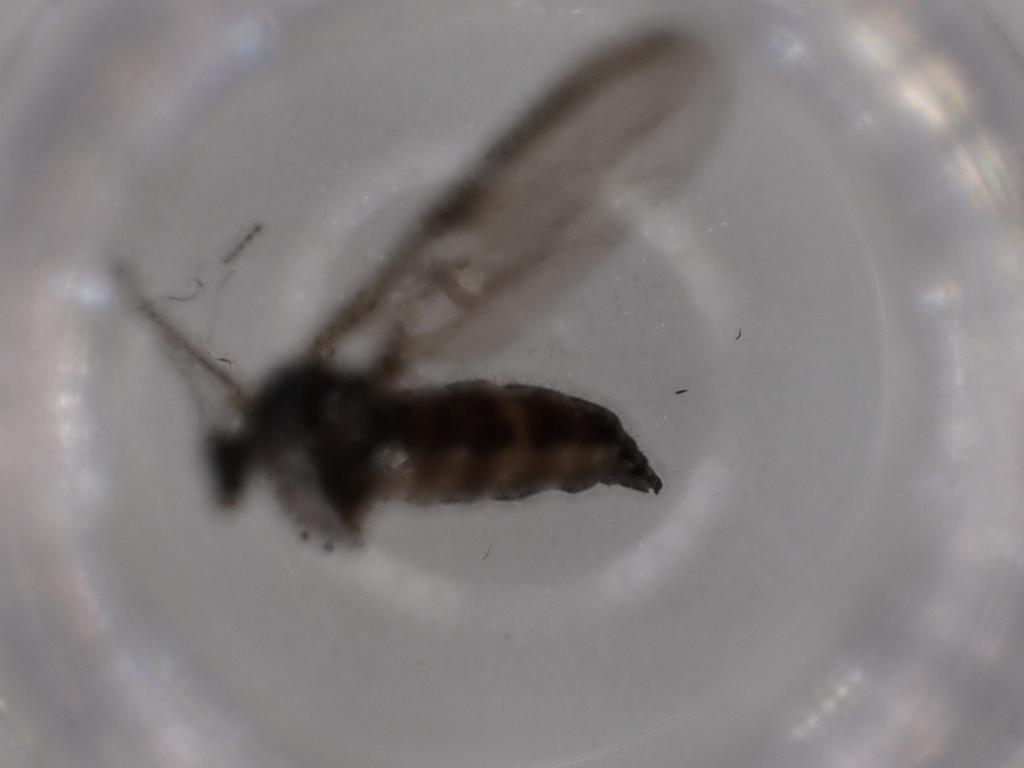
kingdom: Animalia
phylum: Arthropoda
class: Insecta
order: Diptera
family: Sciaridae
